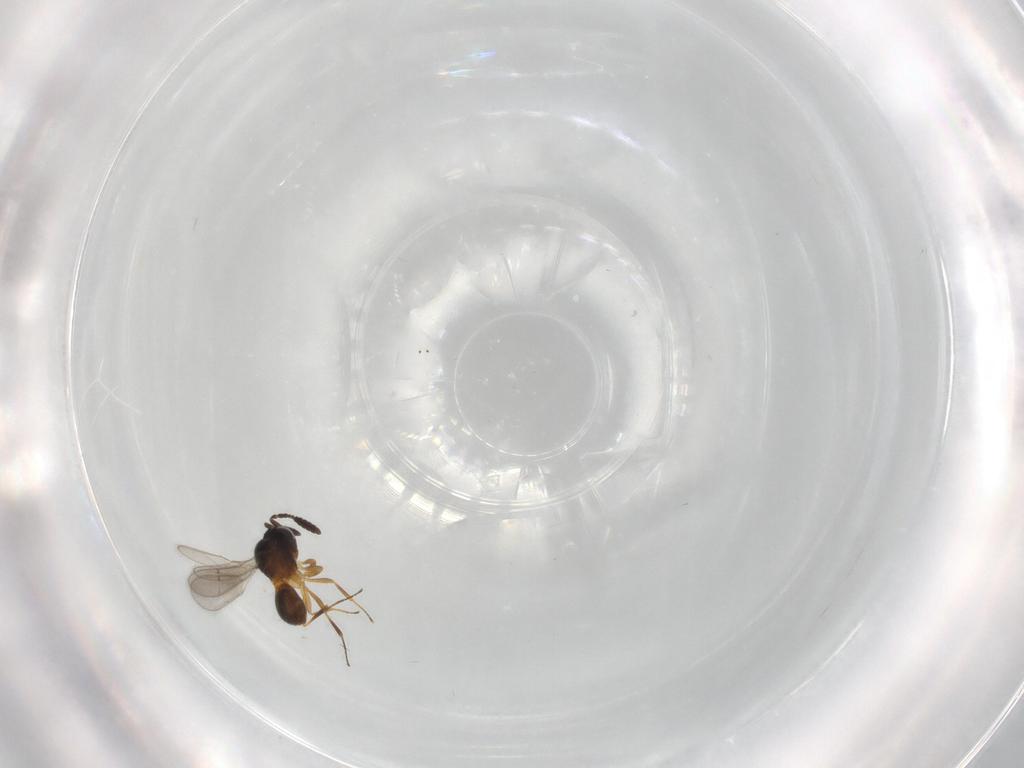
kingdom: Animalia
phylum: Arthropoda
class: Insecta
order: Hymenoptera
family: Scelionidae
